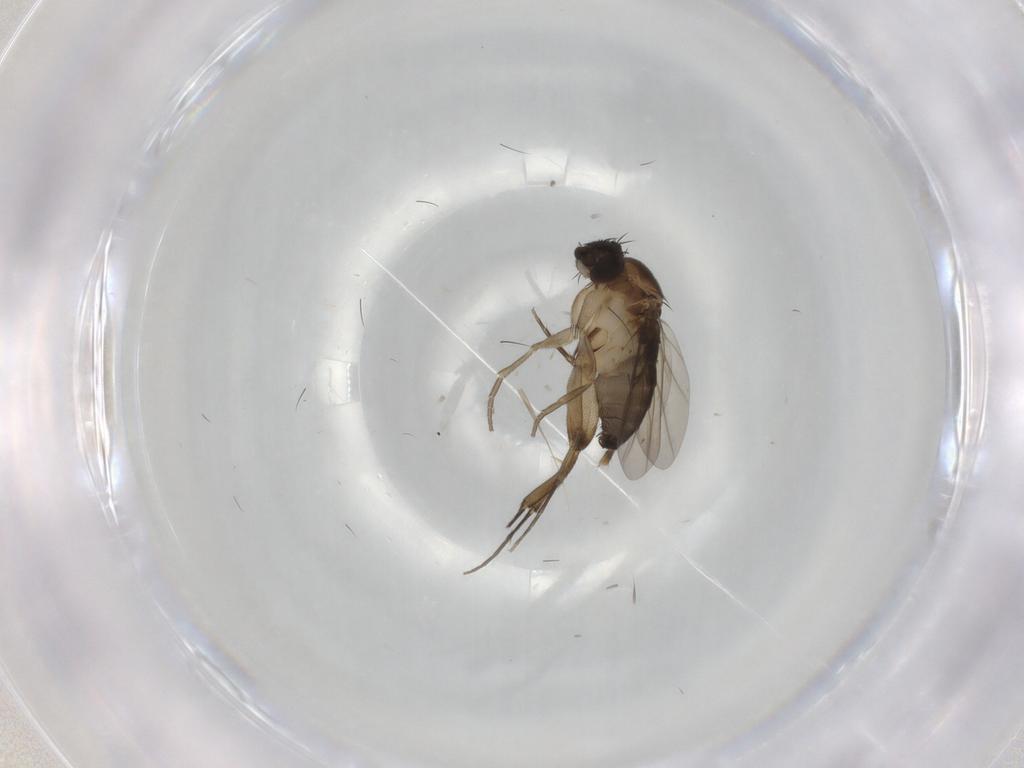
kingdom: Animalia
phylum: Arthropoda
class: Insecta
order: Diptera
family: Phoridae
